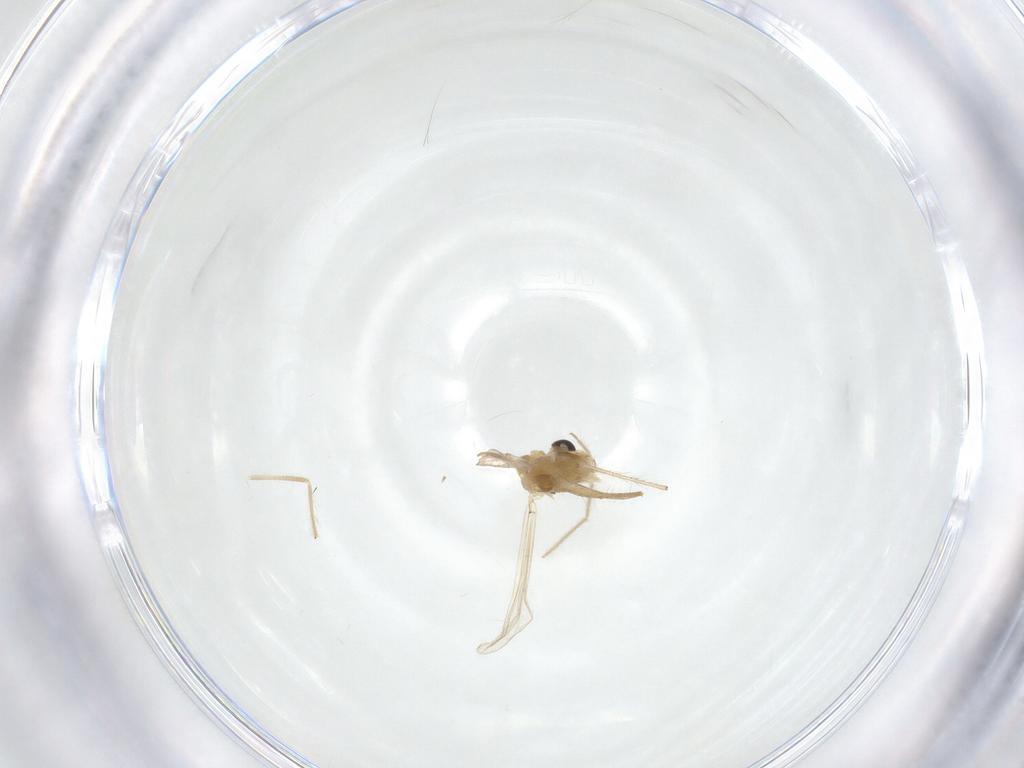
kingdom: Animalia
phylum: Arthropoda
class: Insecta
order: Diptera
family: Chironomidae
